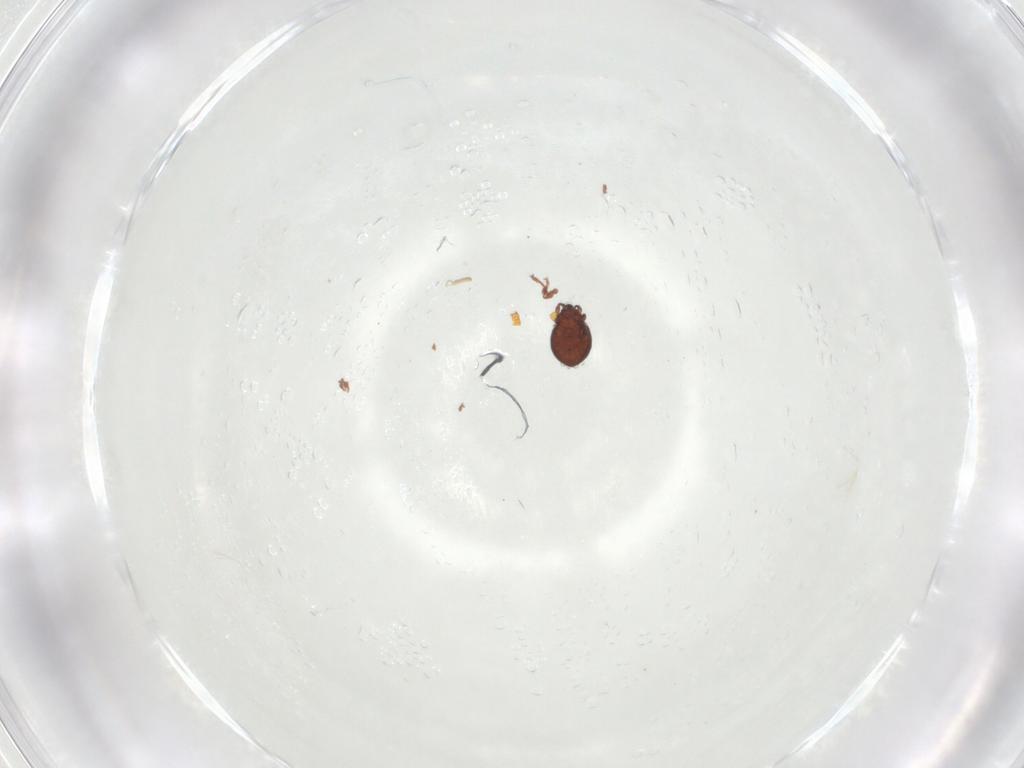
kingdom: Animalia
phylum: Arthropoda
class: Arachnida
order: Sarcoptiformes
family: Scheloribatidae
